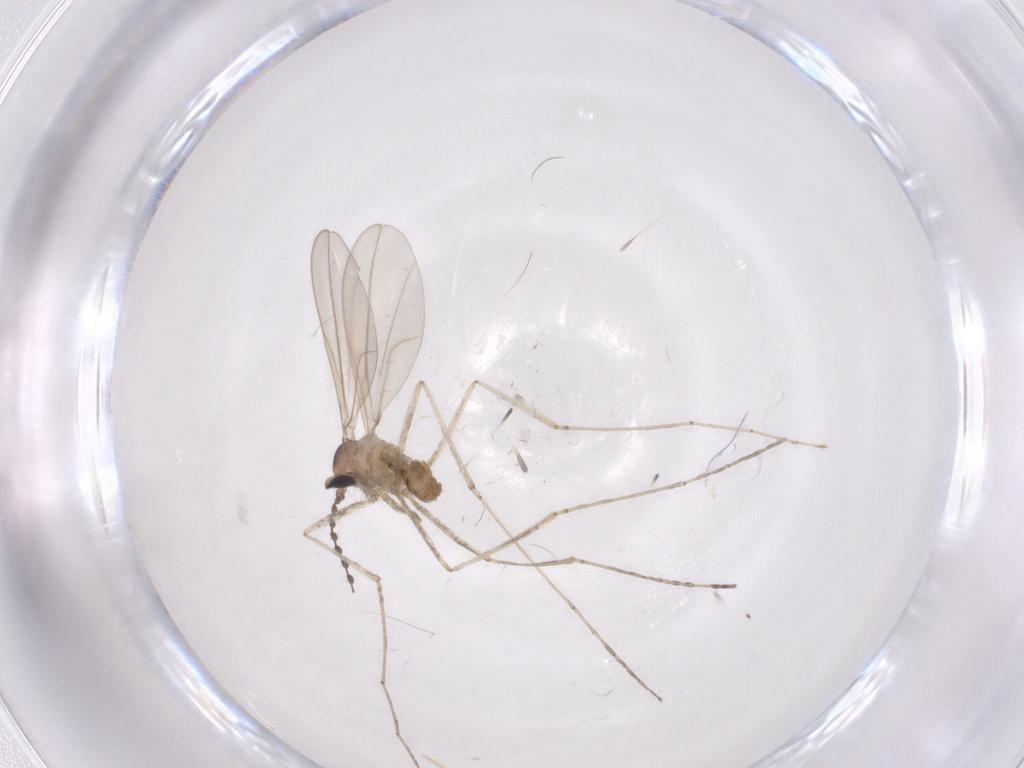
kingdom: Animalia
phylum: Arthropoda
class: Insecta
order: Diptera
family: Cecidomyiidae
